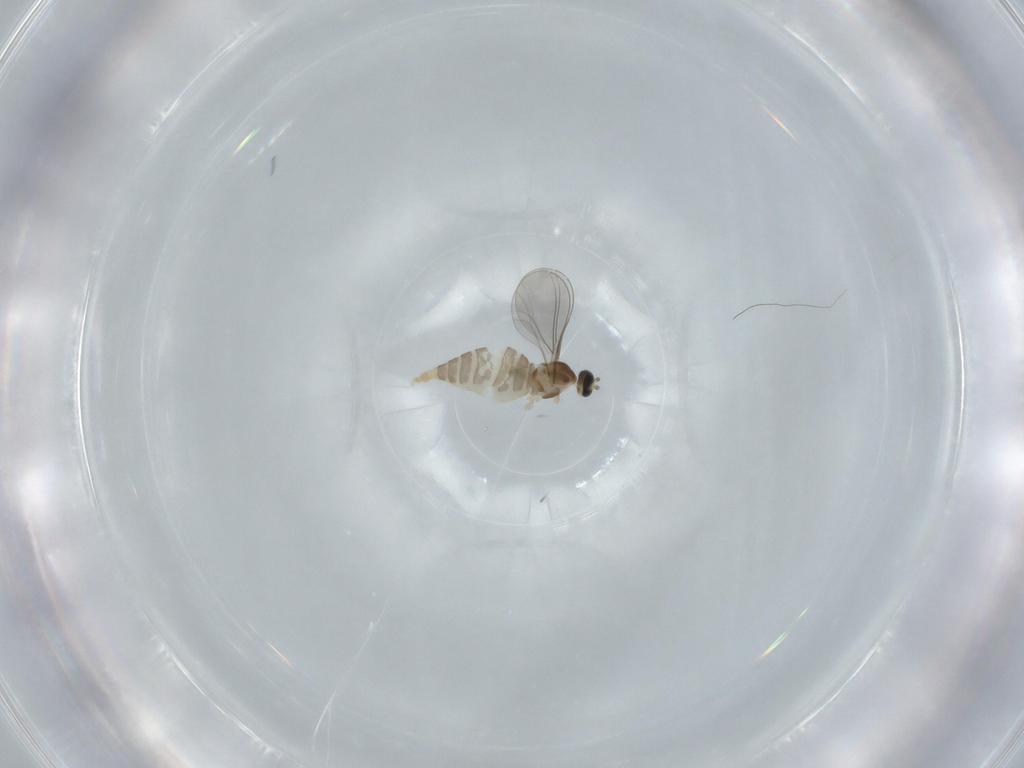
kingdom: Animalia
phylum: Arthropoda
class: Insecta
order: Diptera
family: Cecidomyiidae
